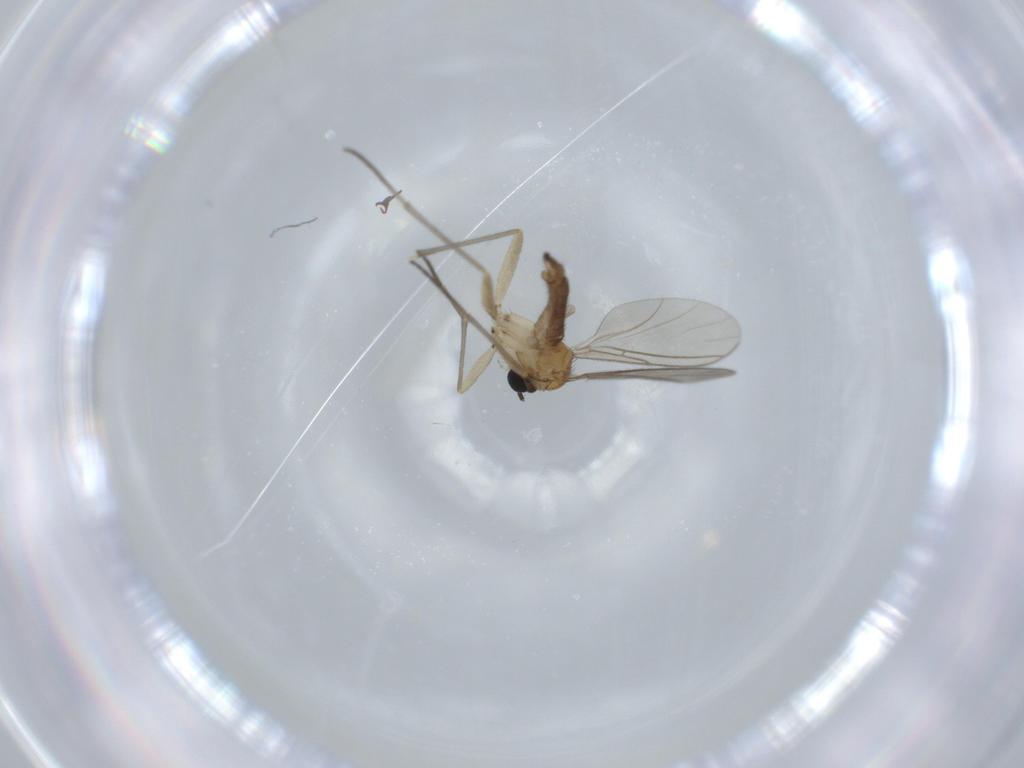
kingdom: Animalia
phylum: Arthropoda
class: Insecta
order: Diptera
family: Sciaridae
